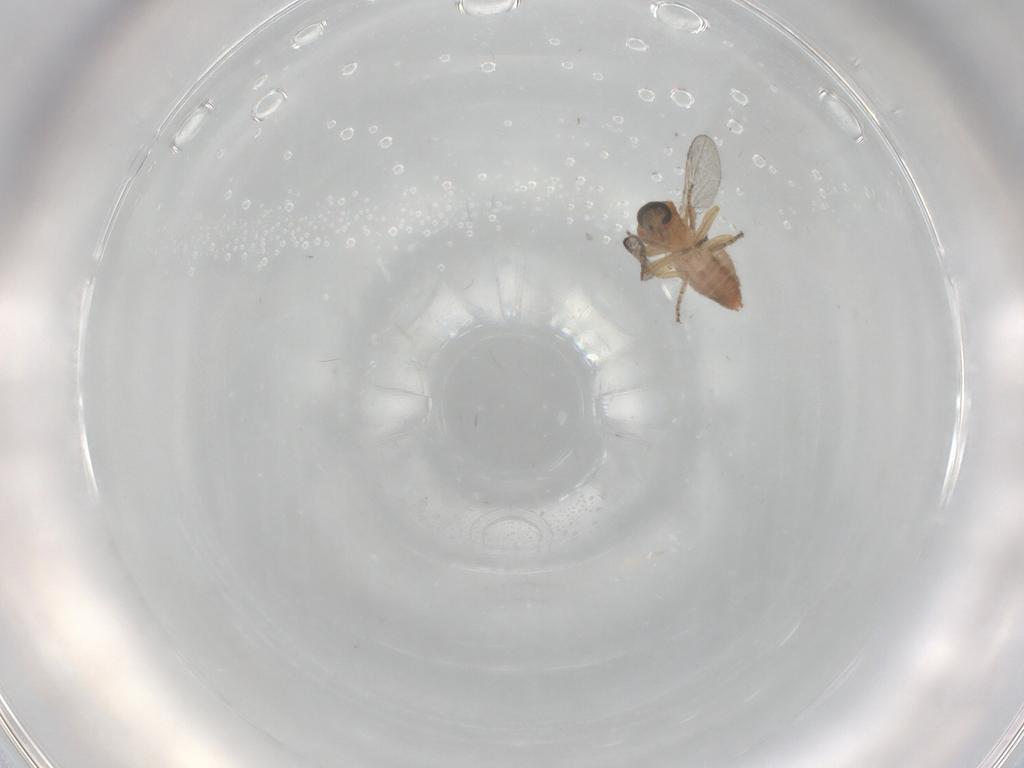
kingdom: Animalia
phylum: Arthropoda
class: Insecta
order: Diptera
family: Ceratopogonidae
